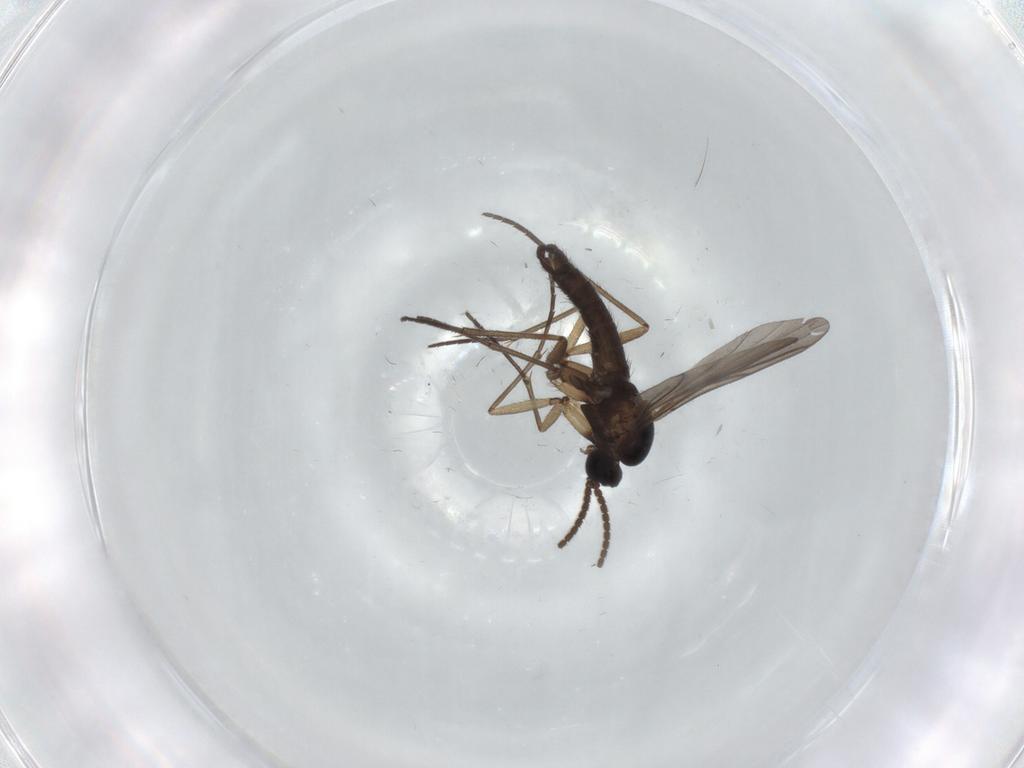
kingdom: Animalia
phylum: Arthropoda
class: Insecta
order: Diptera
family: Sciaridae
